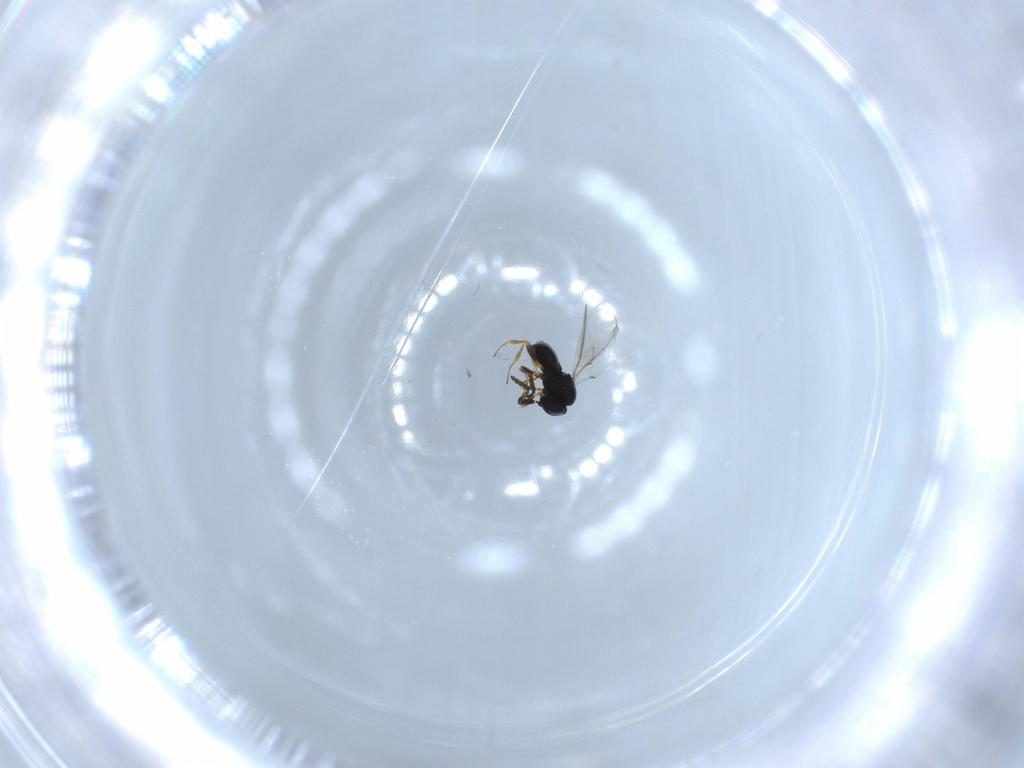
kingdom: Animalia
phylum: Arthropoda
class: Insecta
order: Hymenoptera
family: Scelionidae
